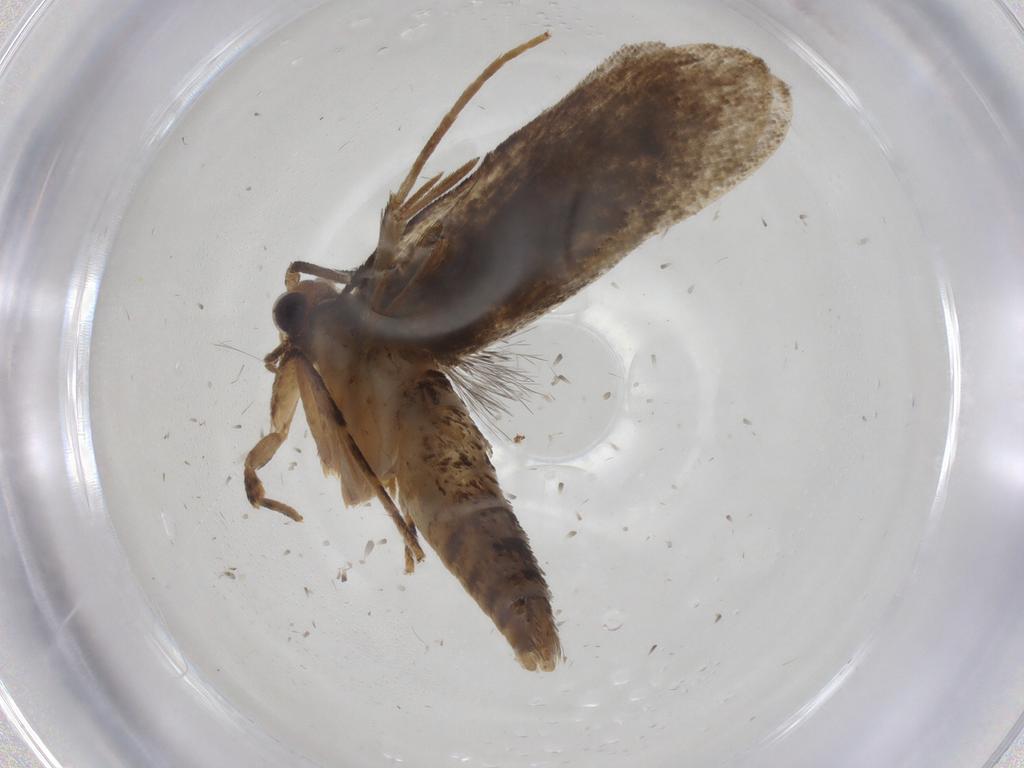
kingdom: Animalia
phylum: Arthropoda
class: Insecta
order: Lepidoptera
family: Tineidae
